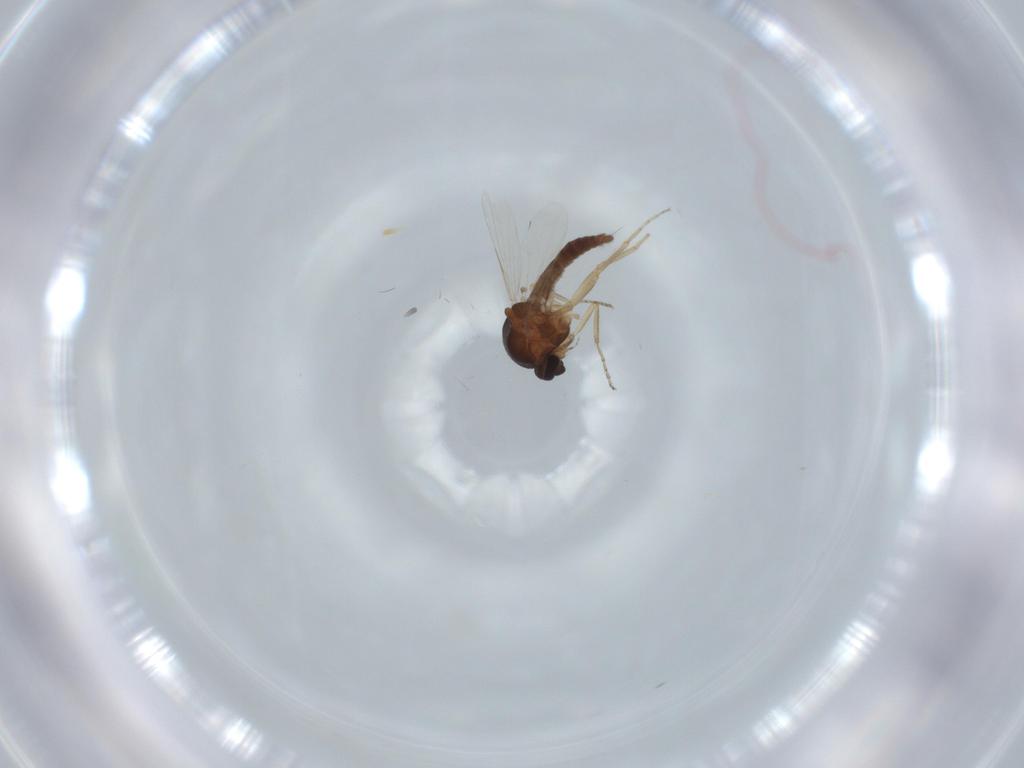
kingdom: Animalia
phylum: Arthropoda
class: Insecta
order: Diptera
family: Ceratopogonidae
